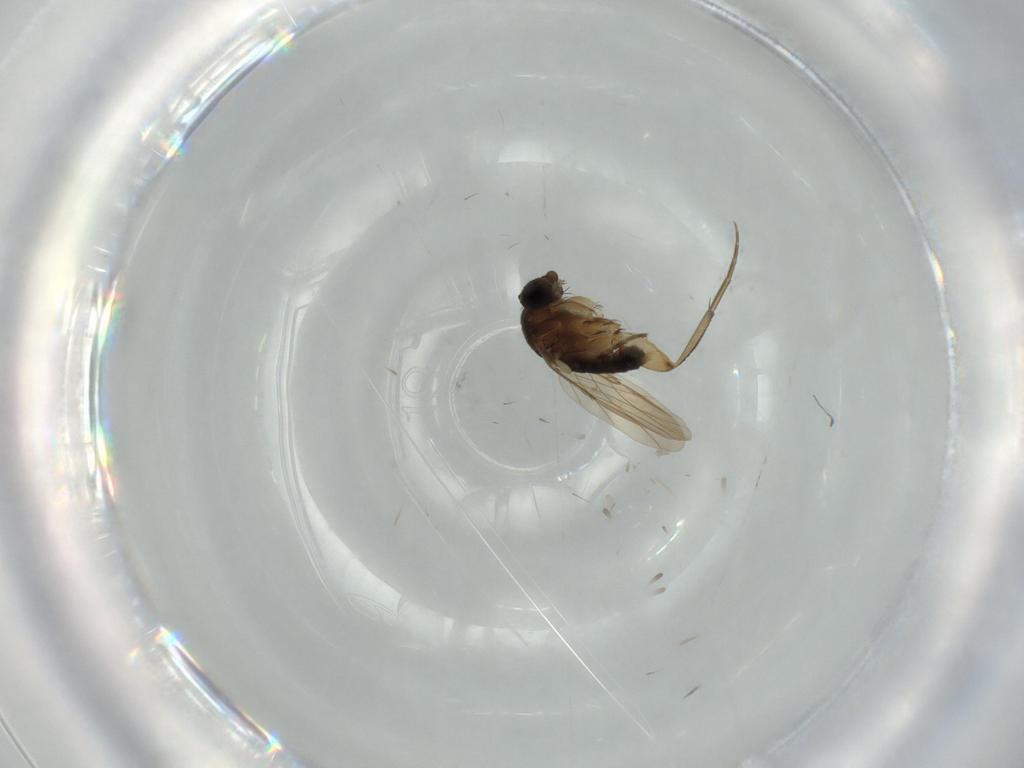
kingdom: Animalia
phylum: Arthropoda
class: Insecta
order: Diptera
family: Phoridae
